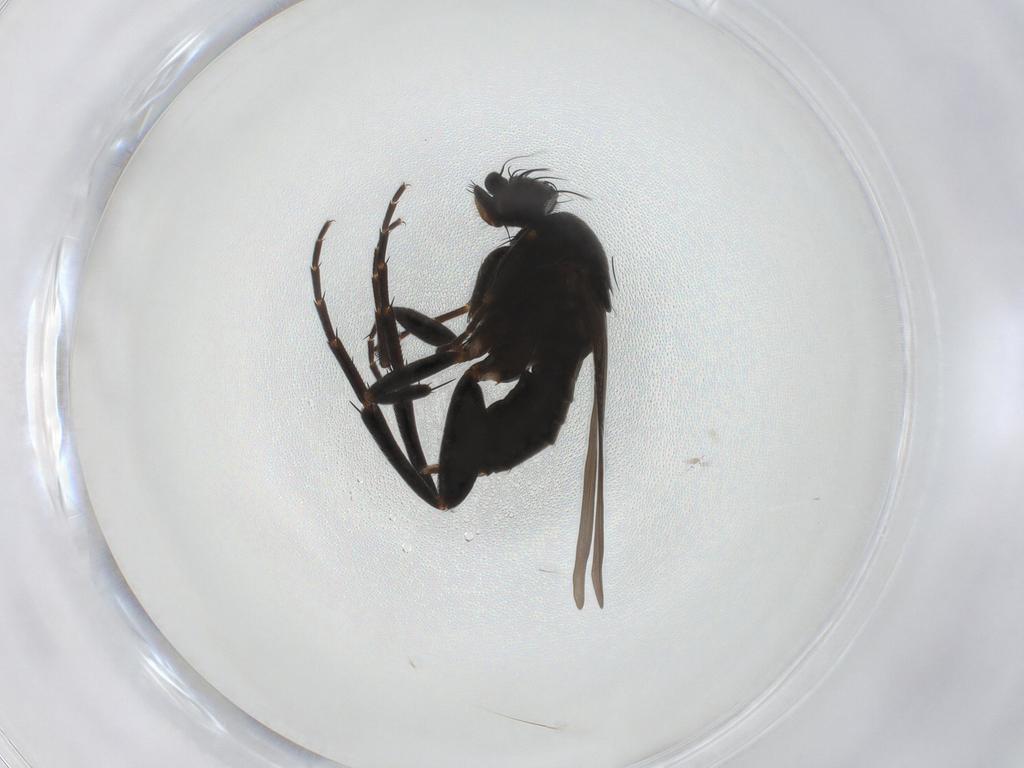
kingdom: Animalia
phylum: Arthropoda
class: Insecta
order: Diptera
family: Phoridae
